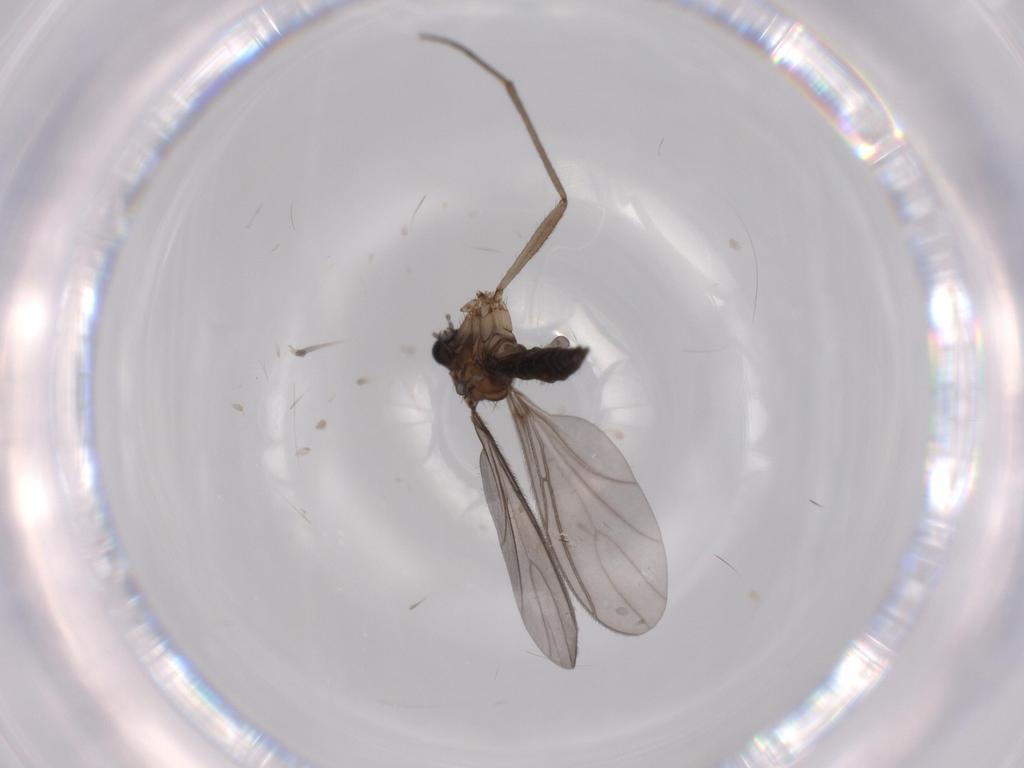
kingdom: Animalia
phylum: Arthropoda
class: Insecta
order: Diptera
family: Sciaridae
